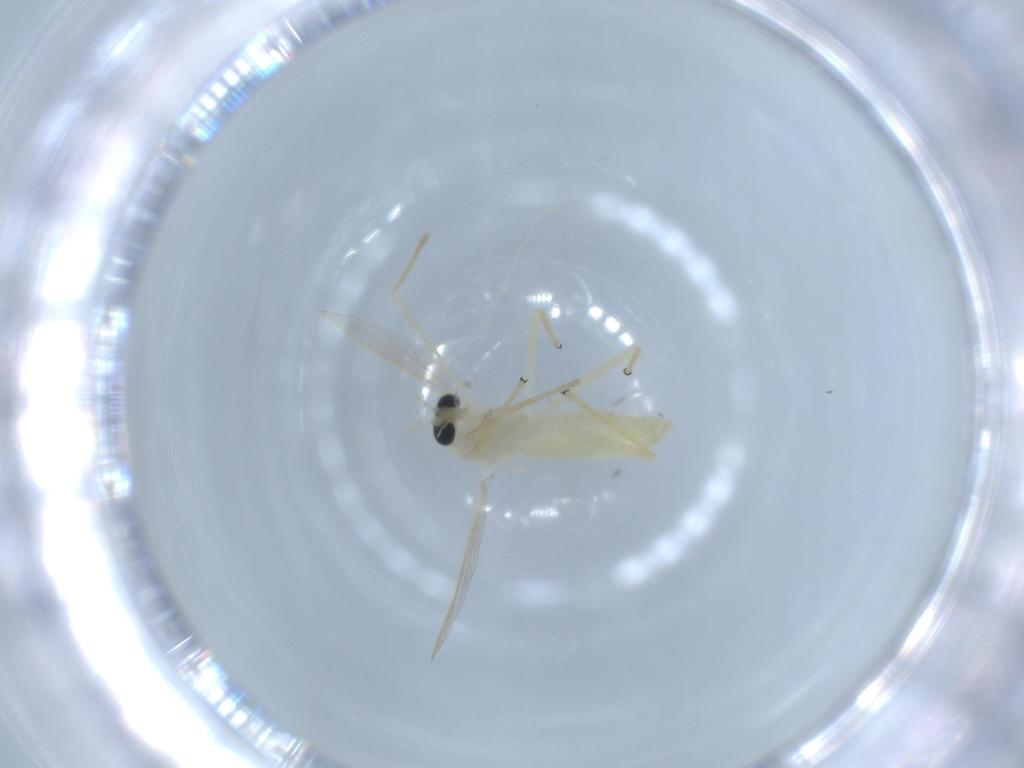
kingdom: Animalia
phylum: Arthropoda
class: Insecta
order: Diptera
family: Chironomidae
